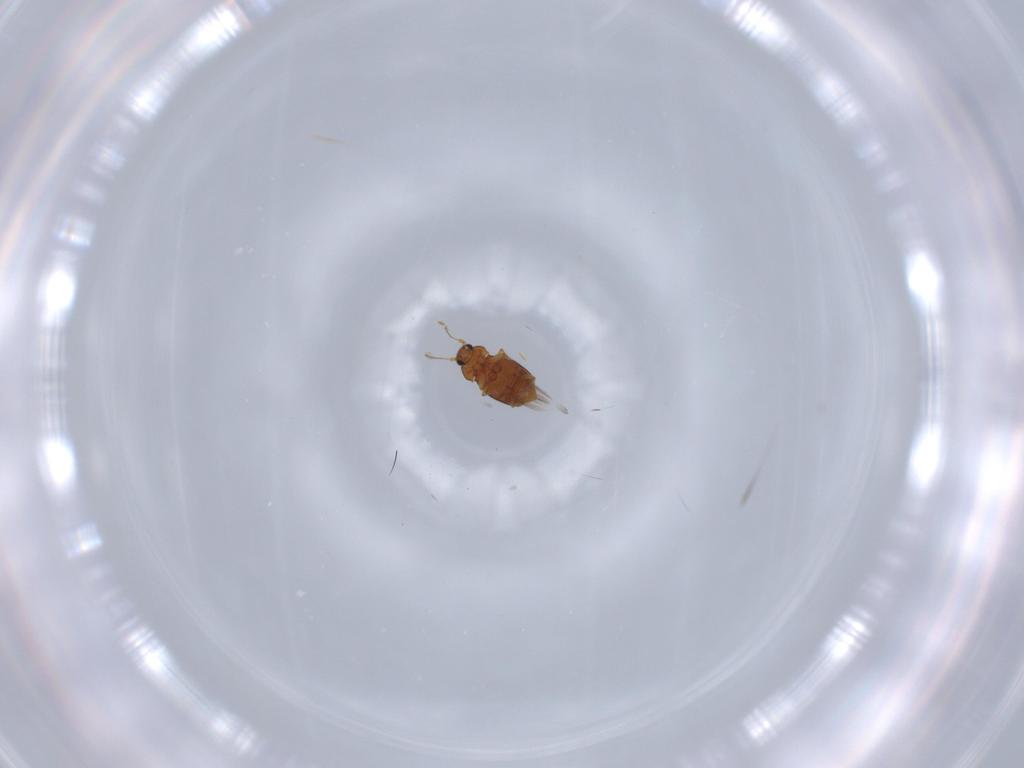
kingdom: Animalia
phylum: Arthropoda
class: Insecta
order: Coleoptera
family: Ptiliidae
